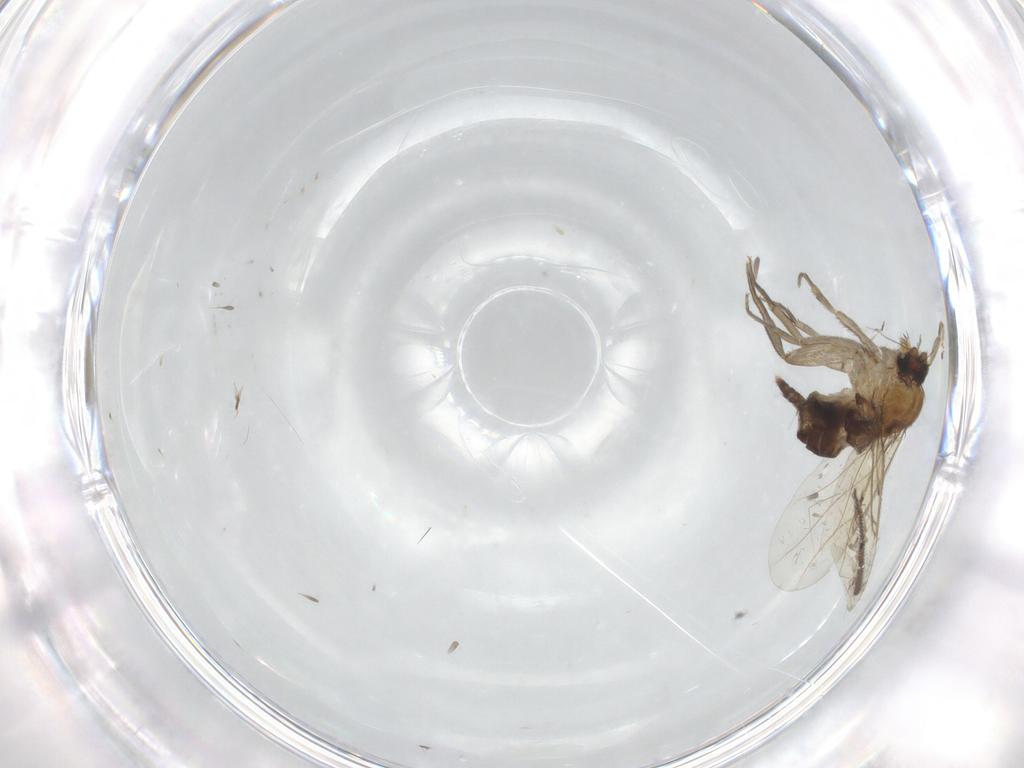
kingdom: Animalia
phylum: Arthropoda
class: Insecta
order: Diptera
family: Phoridae
